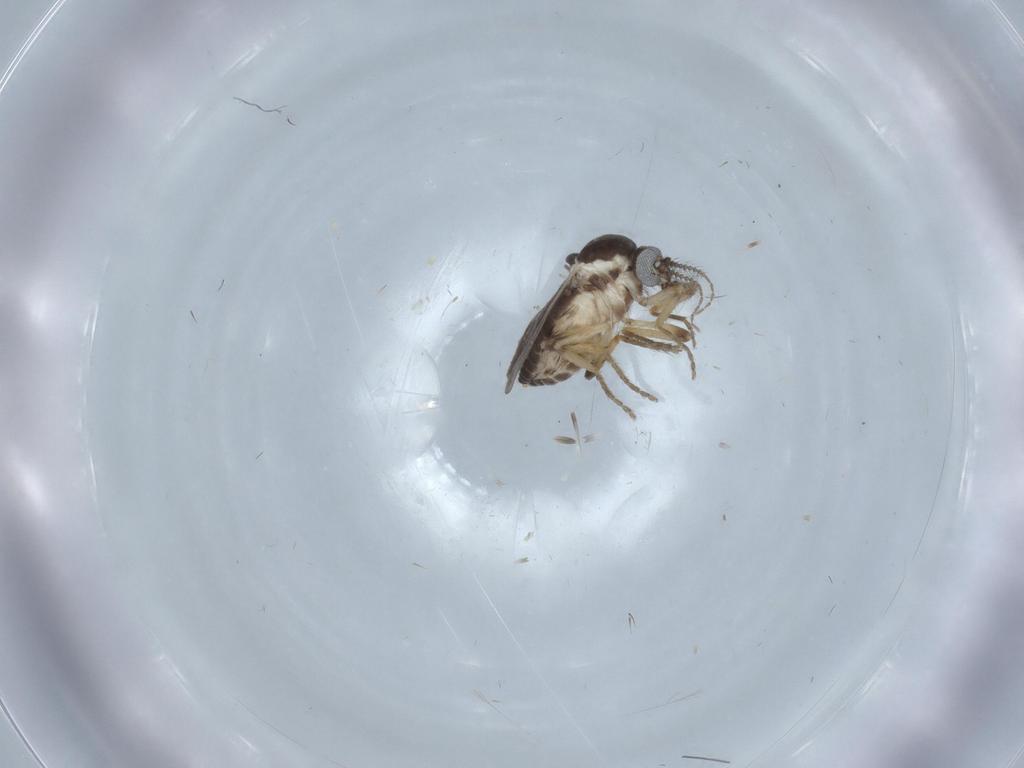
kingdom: Animalia
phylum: Arthropoda
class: Insecta
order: Diptera
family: Ceratopogonidae
